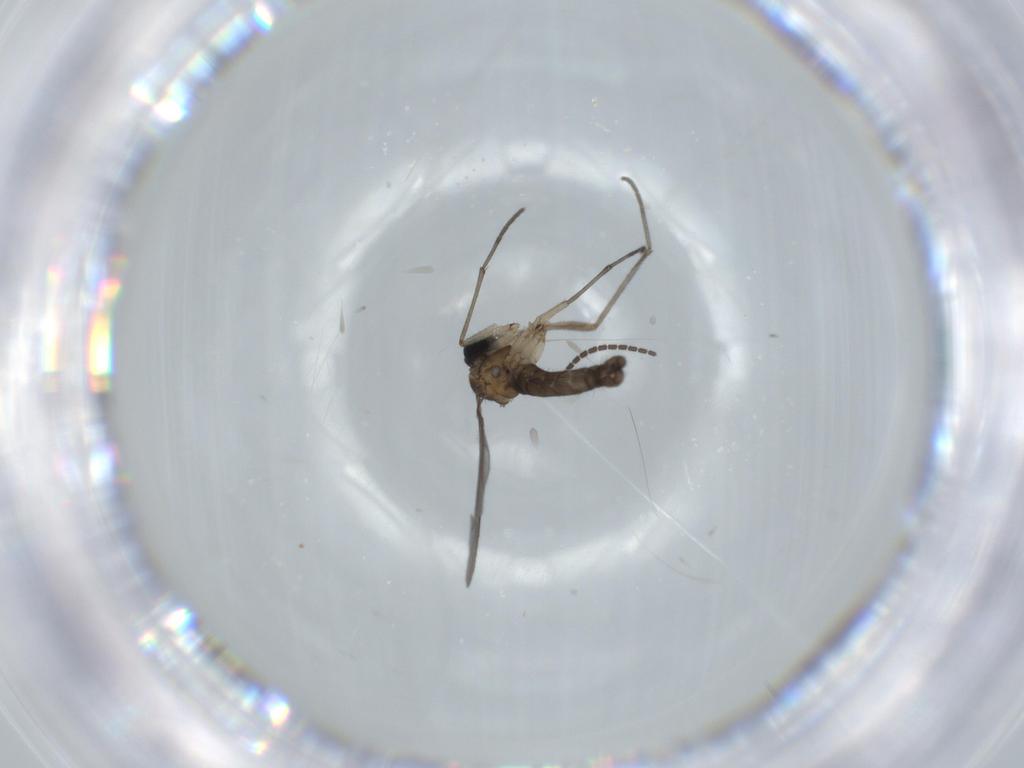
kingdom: Animalia
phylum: Arthropoda
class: Insecta
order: Diptera
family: Sciaridae
